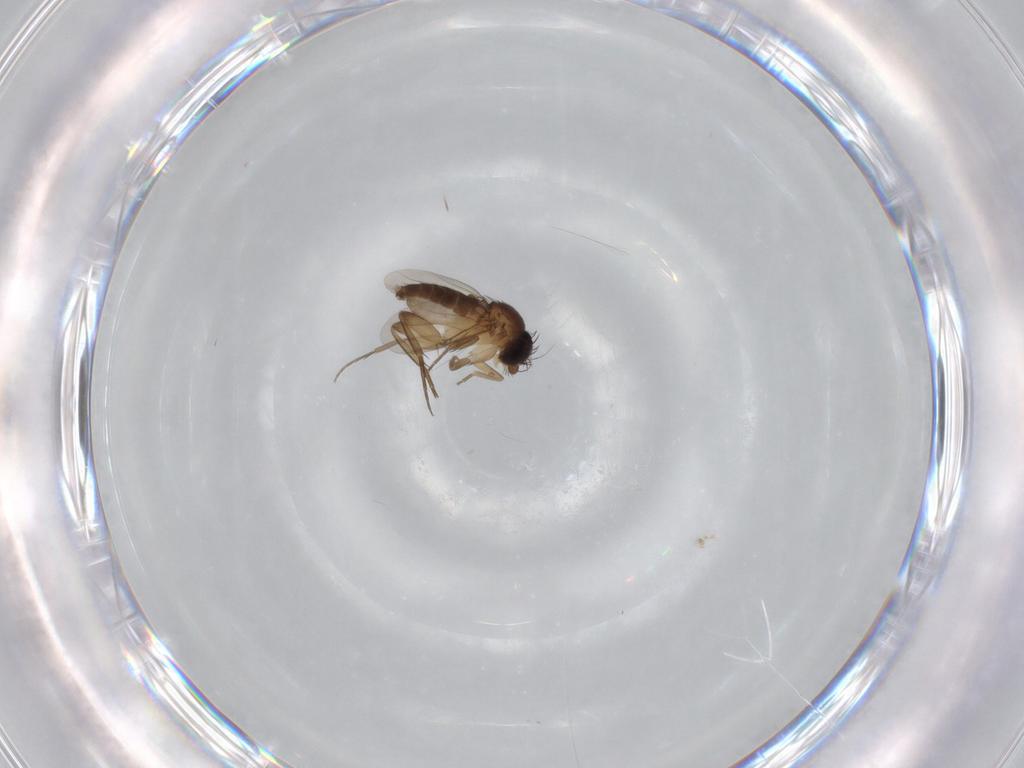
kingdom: Animalia
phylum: Arthropoda
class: Insecta
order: Diptera
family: Phoridae
